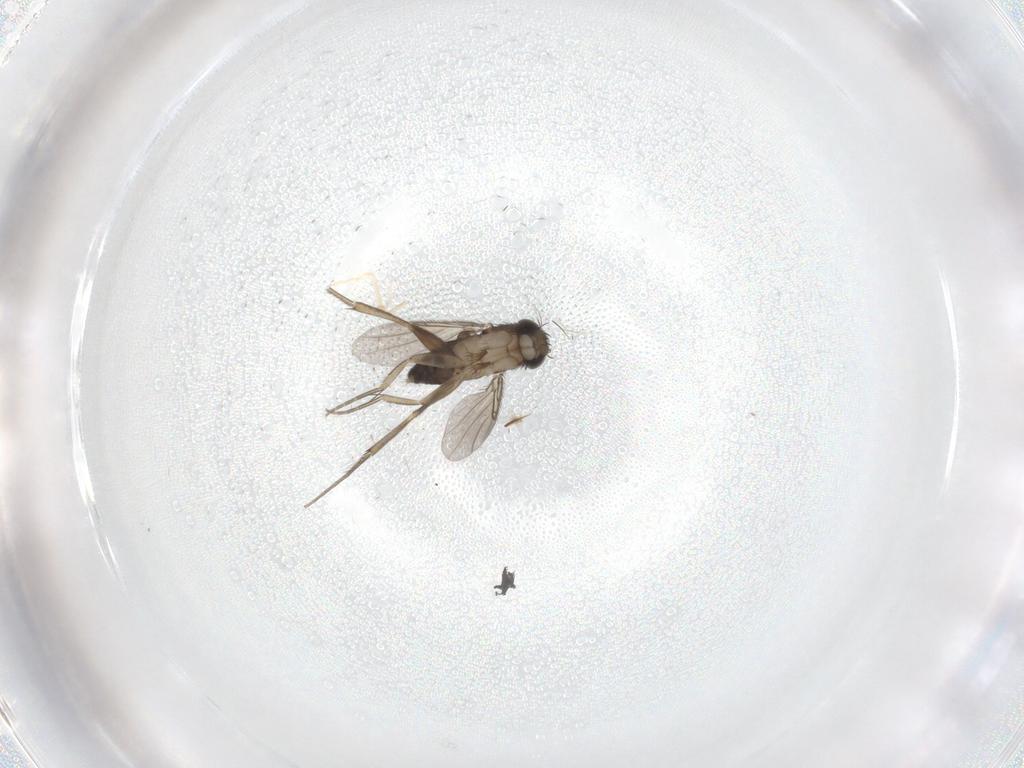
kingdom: Animalia
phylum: Arthropoda
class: Insecta
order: Diptera
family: Phoridae
